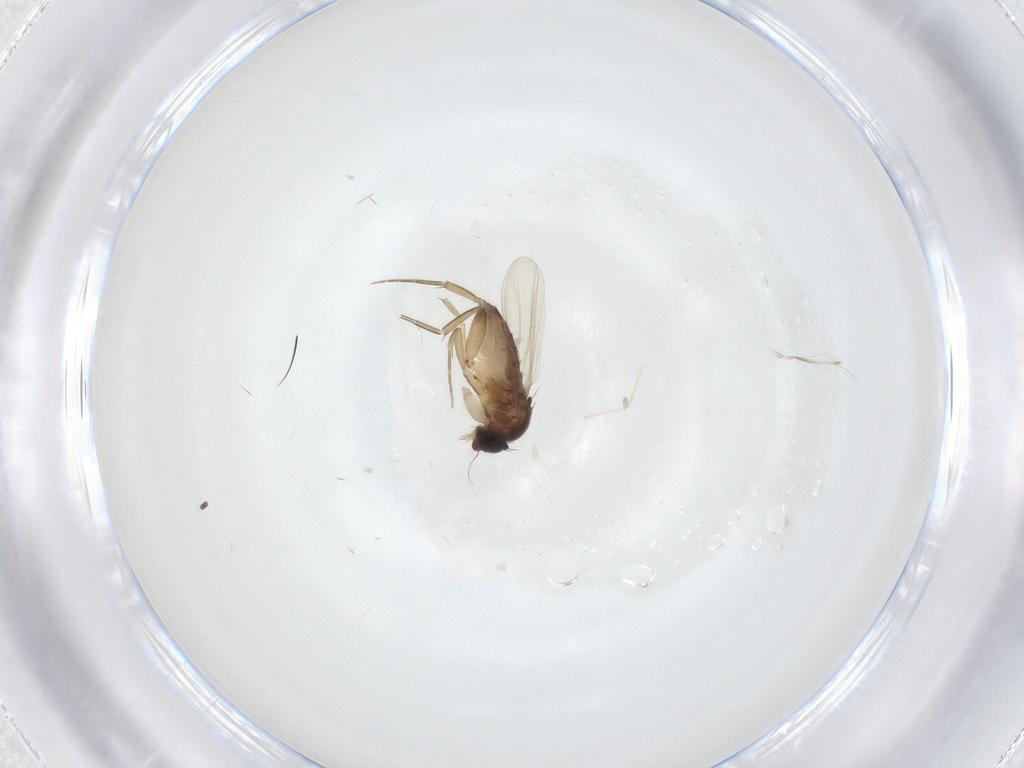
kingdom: Animalia
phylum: Arthropoda
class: Insecta
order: Diptera
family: Phoridae
